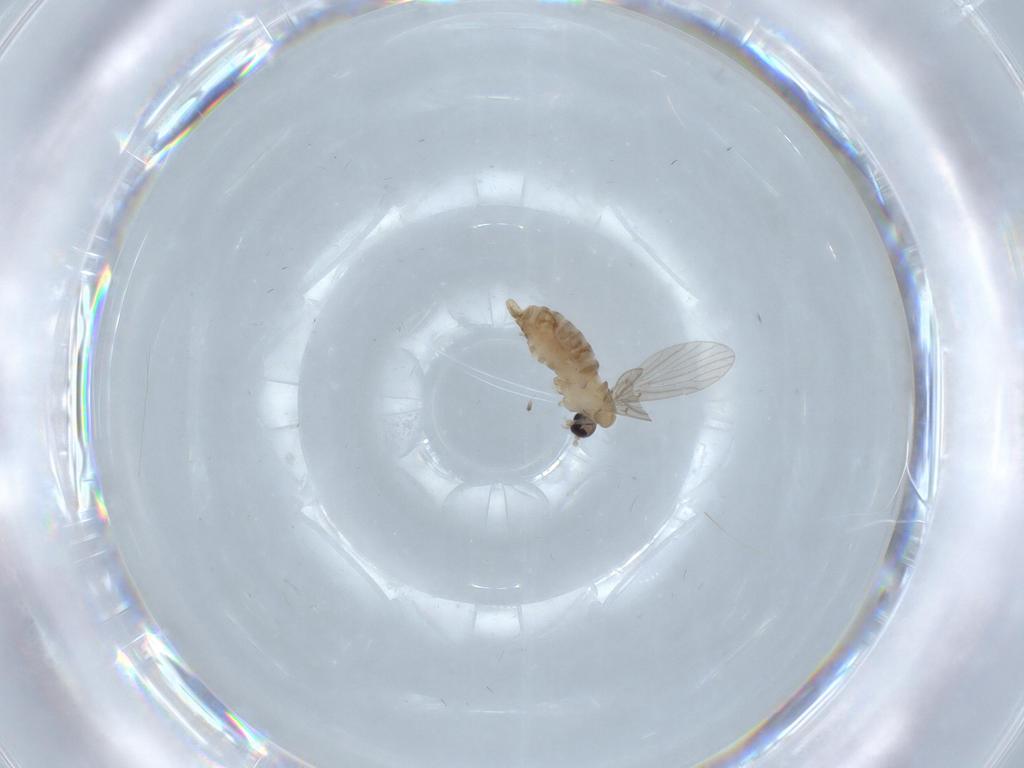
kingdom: Animalia
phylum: Arthropoda
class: Insecta
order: Diptera
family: Psychodidae
